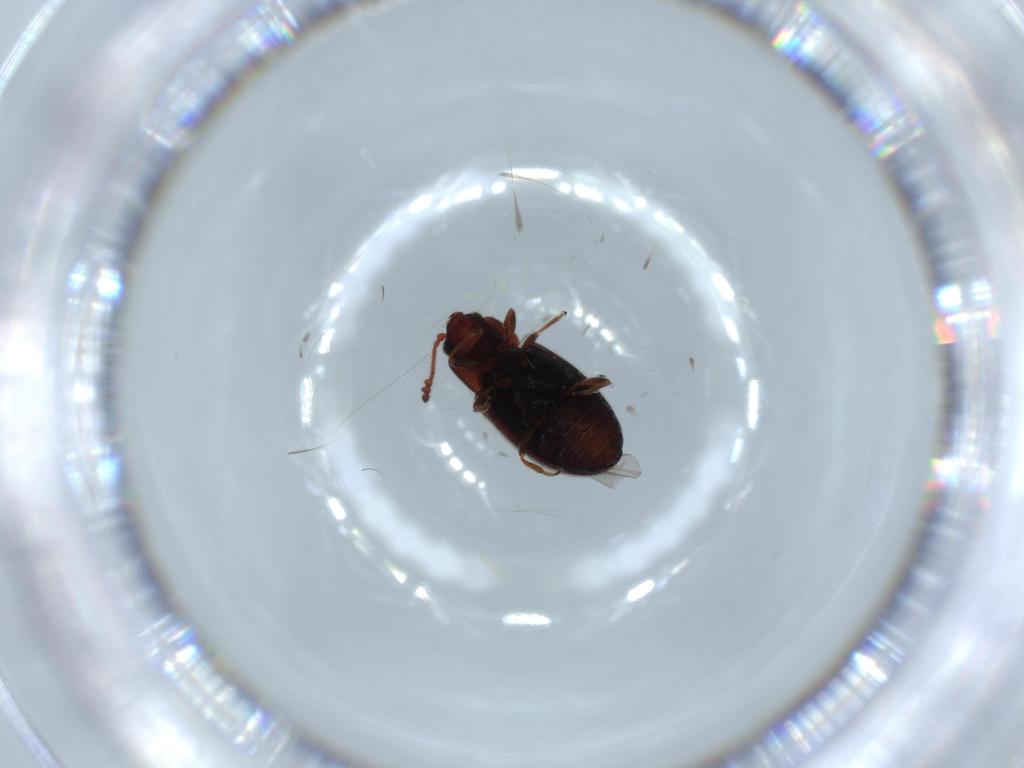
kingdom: Animalia
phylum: Arthropoda
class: Insecta
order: Coleoptera
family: Cryptophagidae
